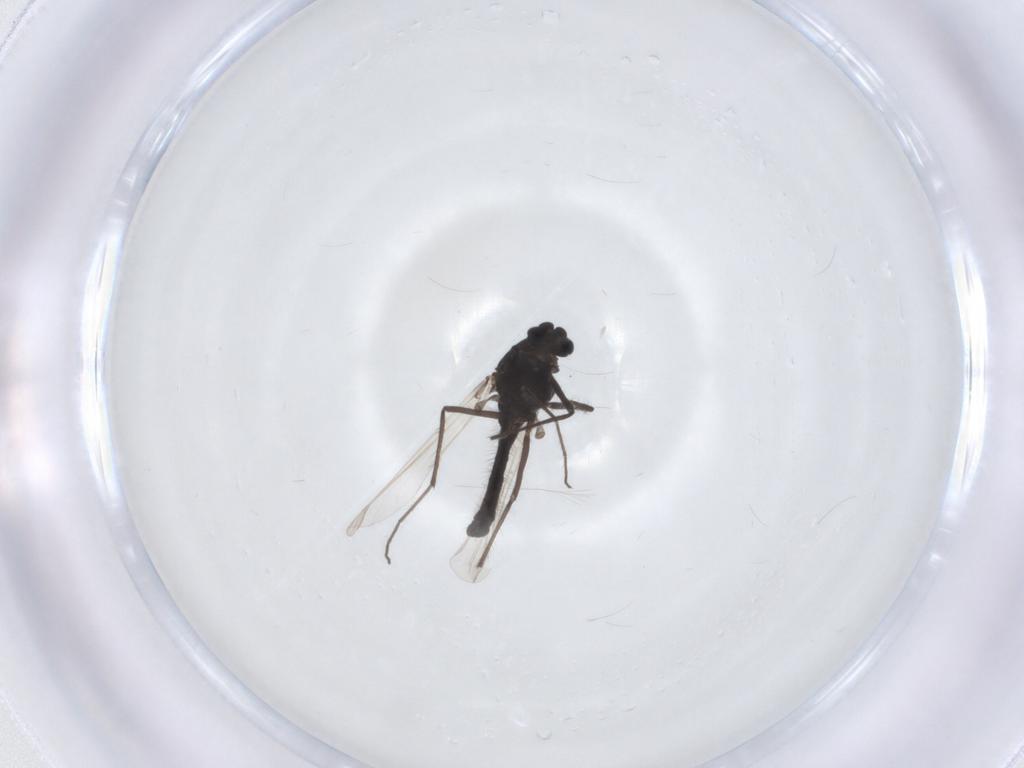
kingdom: Animalia
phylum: Arthropoda
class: Insecta
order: Diptera
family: Chironomidae
